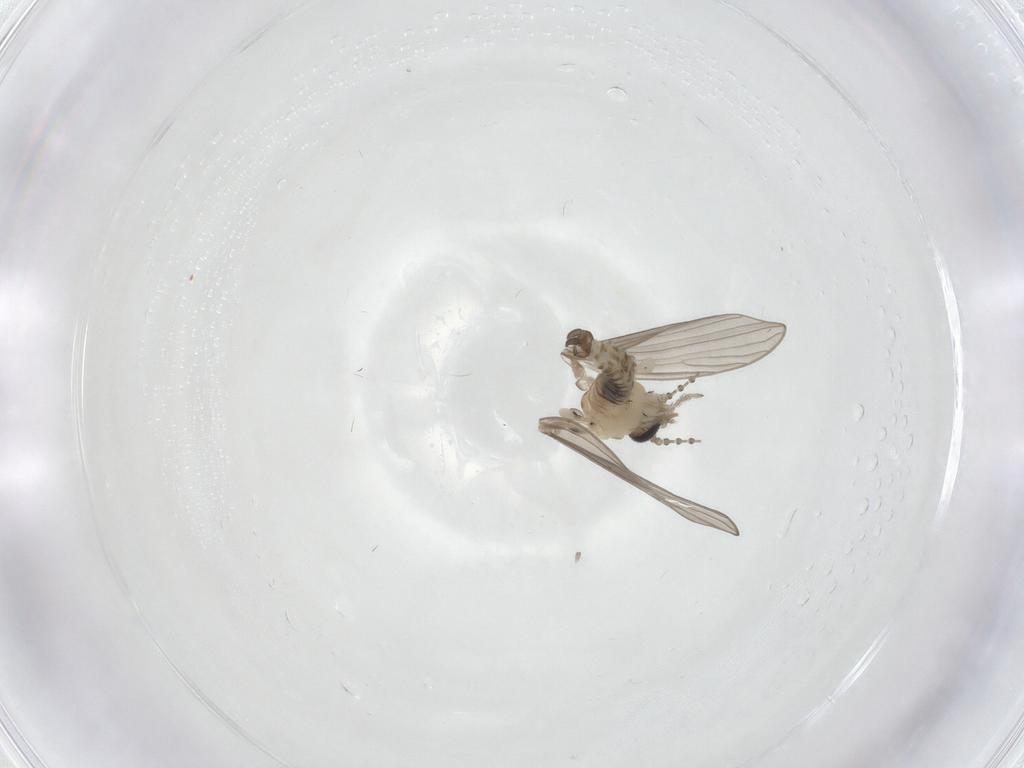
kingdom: Animalia
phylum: Arthropoda
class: Insecta
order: Diptera
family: Psychodidae
